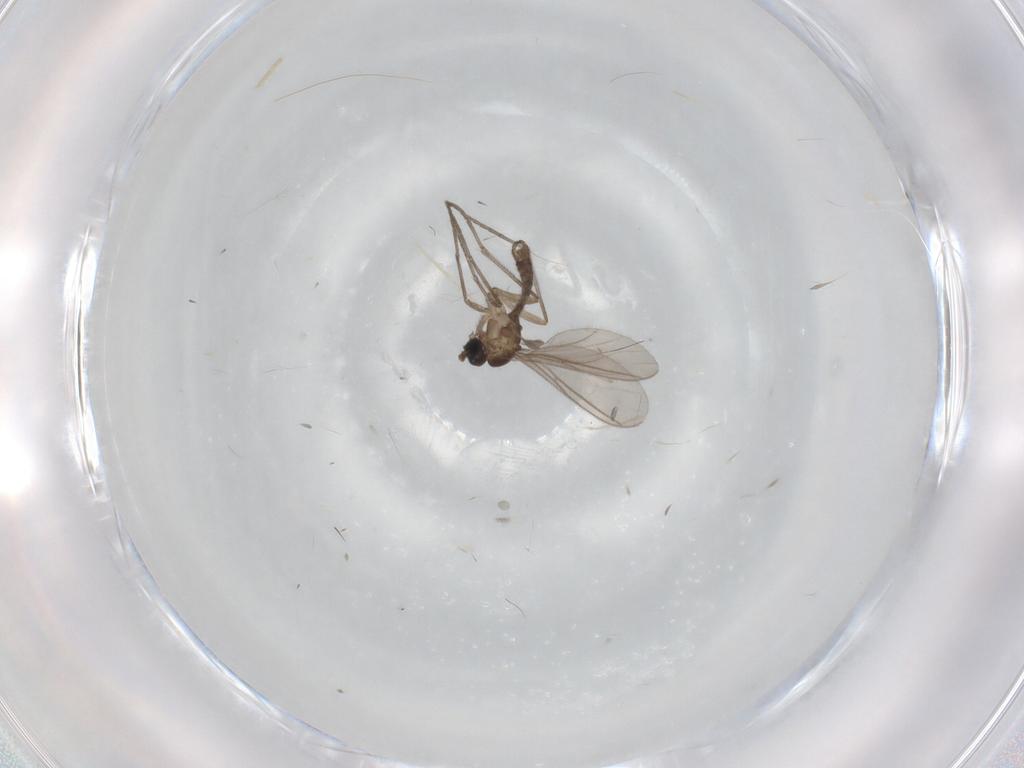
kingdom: Animalia
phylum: Arthropoda
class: Insecta
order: Diptera
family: Sciaridae
